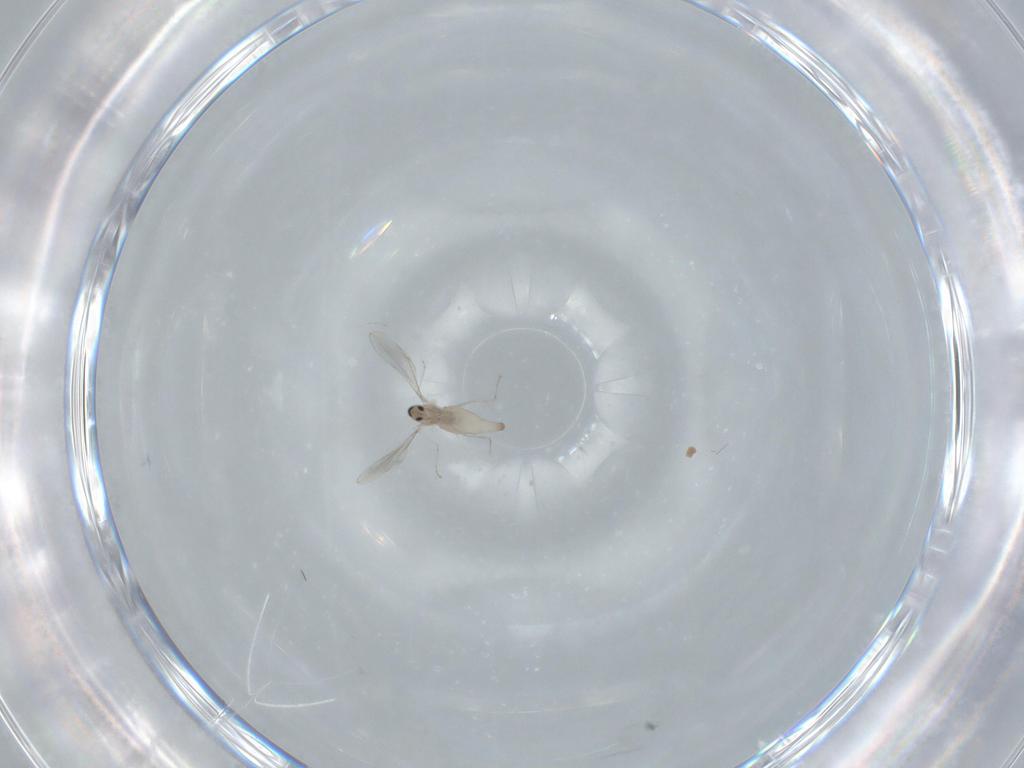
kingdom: Animalia
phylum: Arthropoda
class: Insecta
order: Diptera
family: Cecidomyiidae
